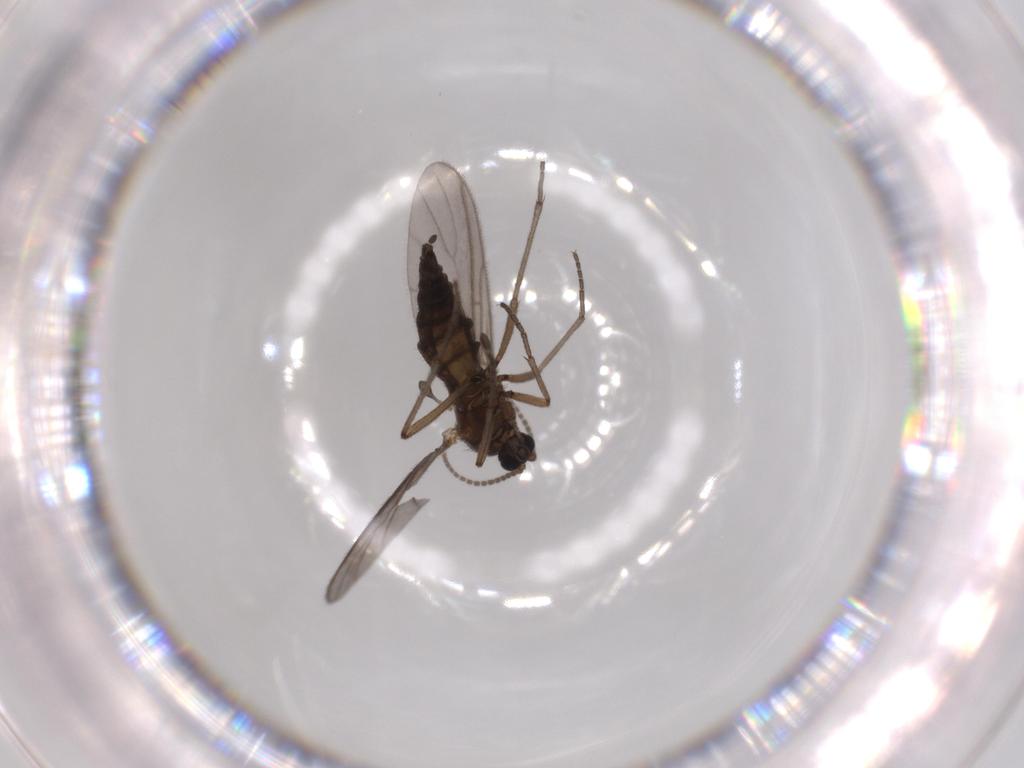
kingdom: Animalia
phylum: Arthropoda
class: Insecta
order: Diptera
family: Sciaridae
